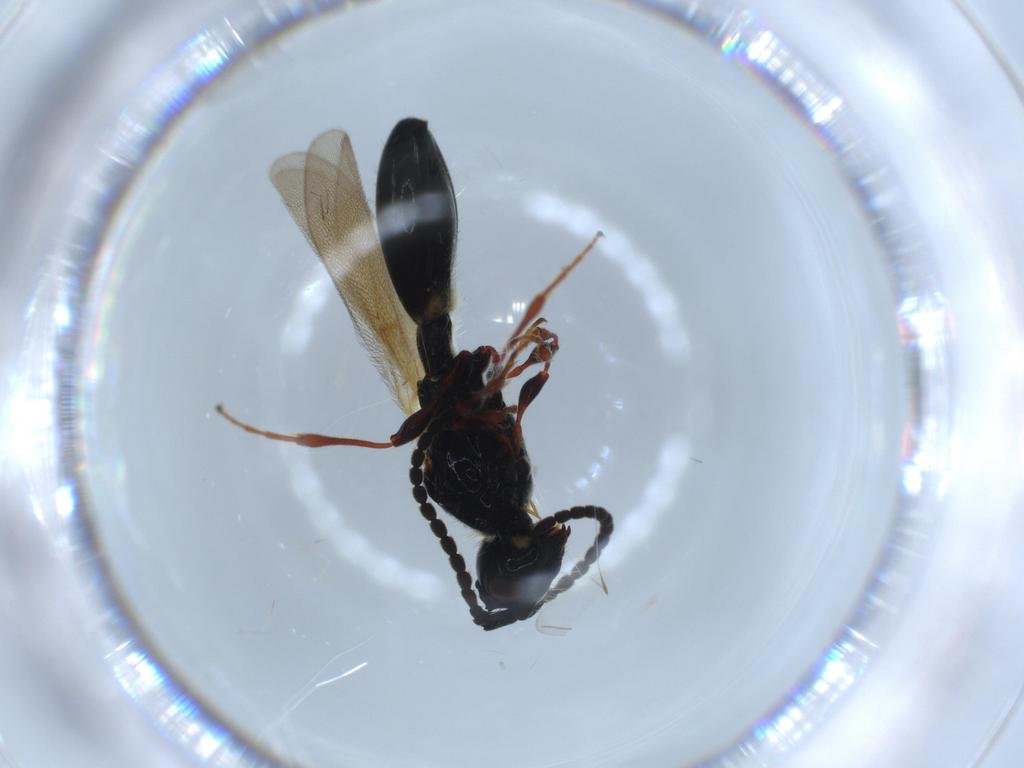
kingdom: Animalia
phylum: Arthropoda
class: Insecta
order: Hymenoptera
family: Diapriidae
